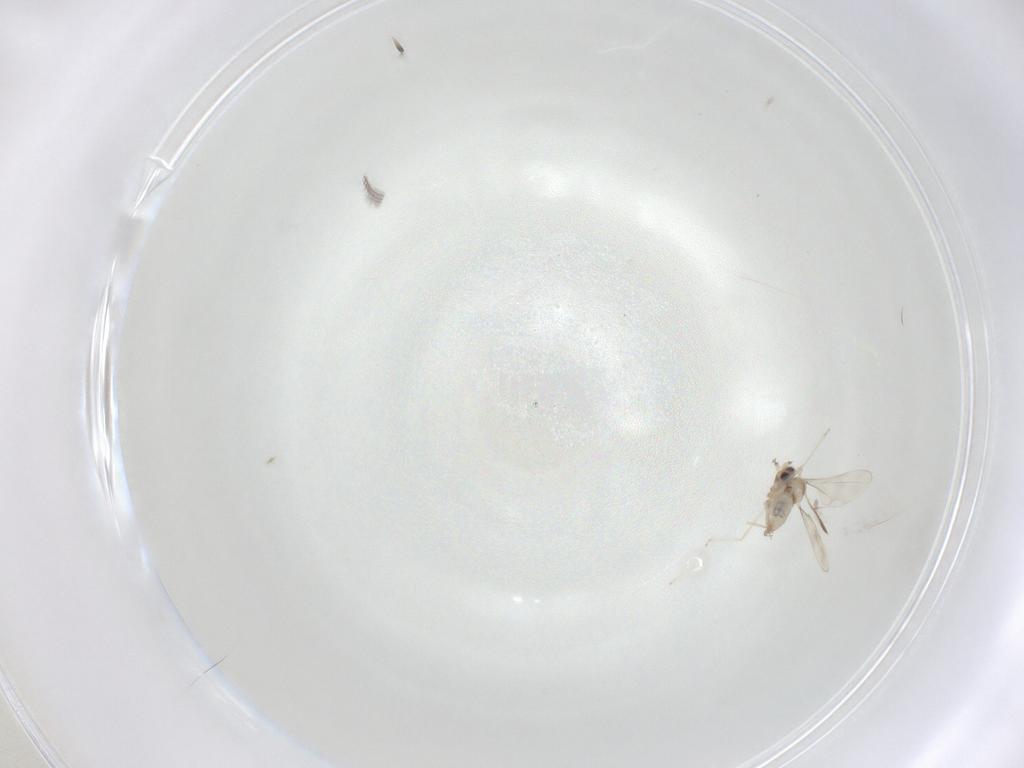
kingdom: Animalia
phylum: Arthropoda
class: Insecta
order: Diptera
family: Cecidomyiidae
